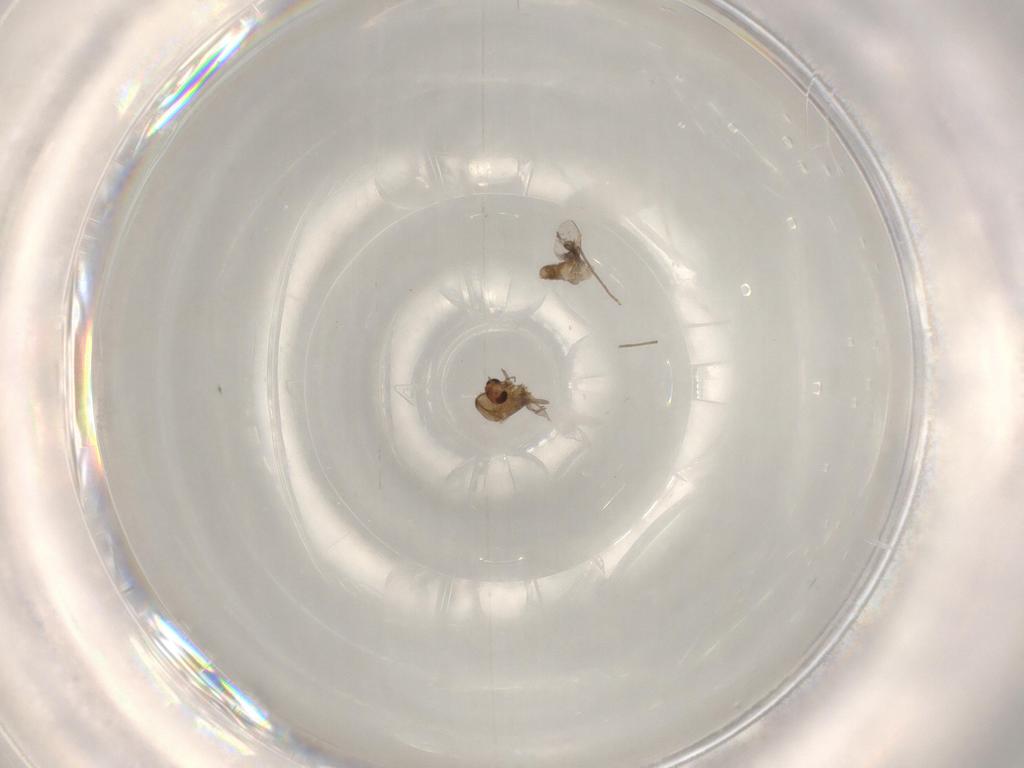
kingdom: Animalia
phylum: Arthropoda
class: Insecta
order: Diptera
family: Chironomidae
